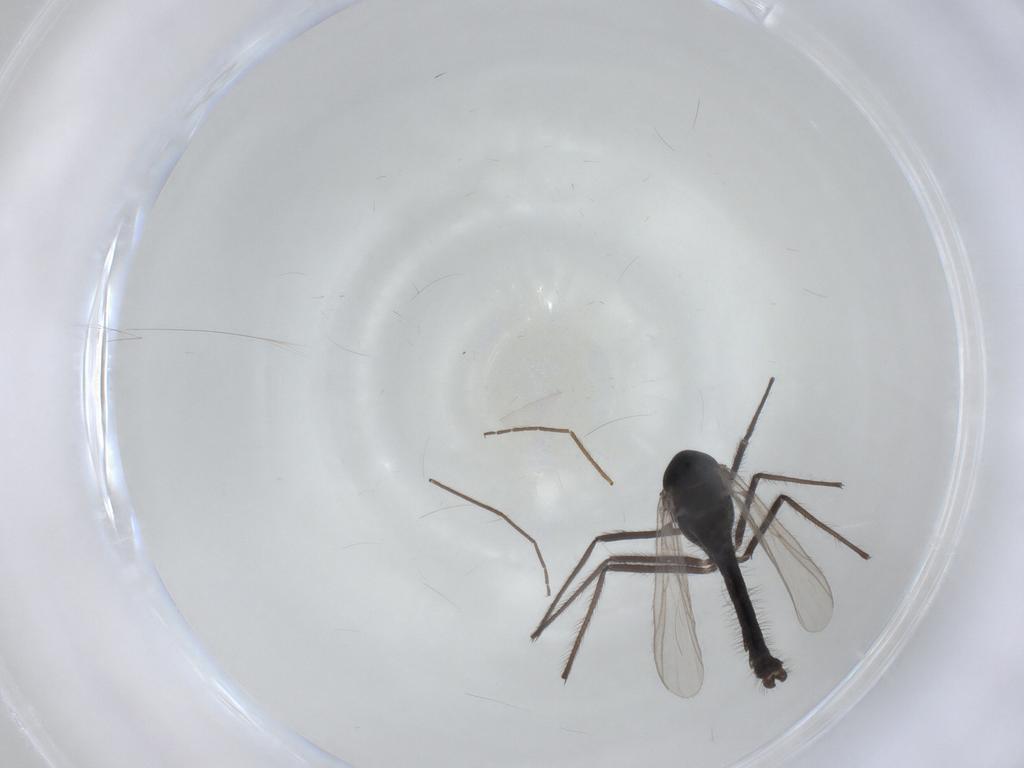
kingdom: Animalia
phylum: Arthropoda
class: Insecta
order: Diptera
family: Chironomidae
